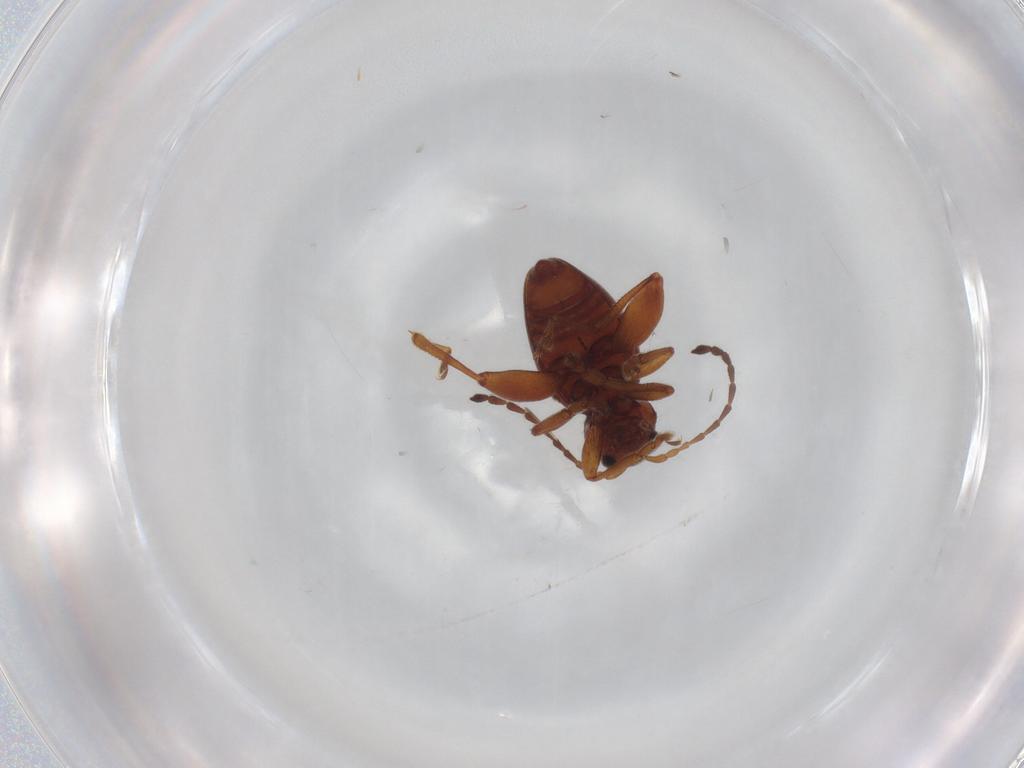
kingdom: Animalia
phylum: Arthropoda
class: Insecta
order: Coleoptera
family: Chrysomelidae
